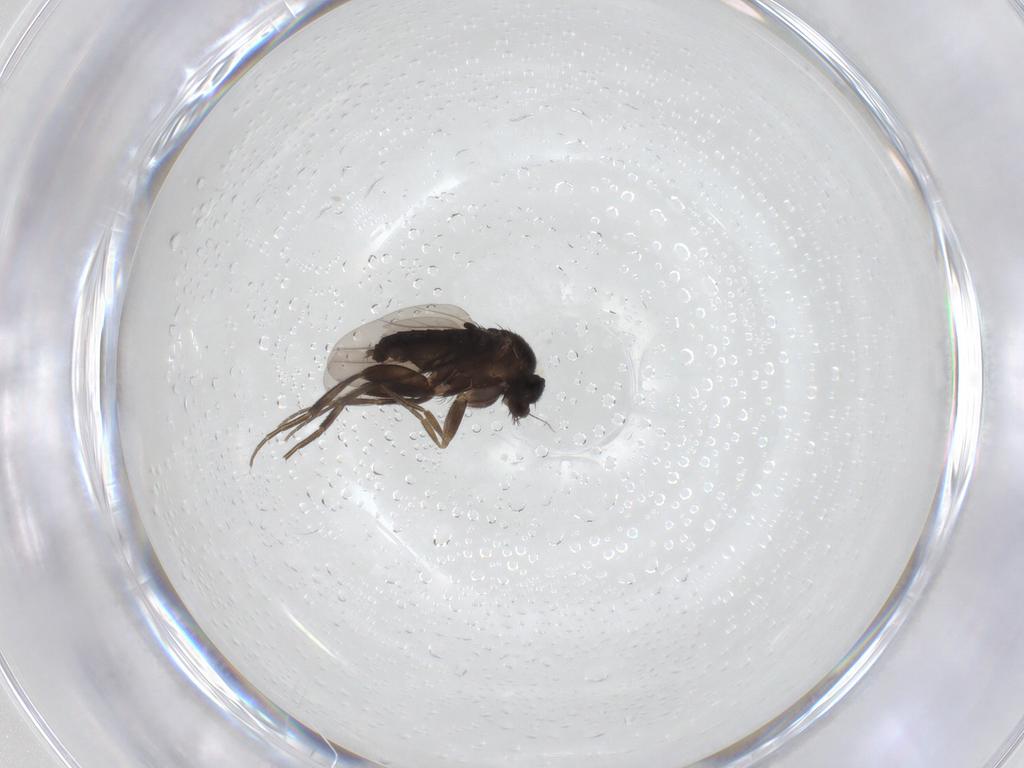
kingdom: Animalia
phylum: Arthropoda
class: Insecta
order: Diptera
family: Phoridae
